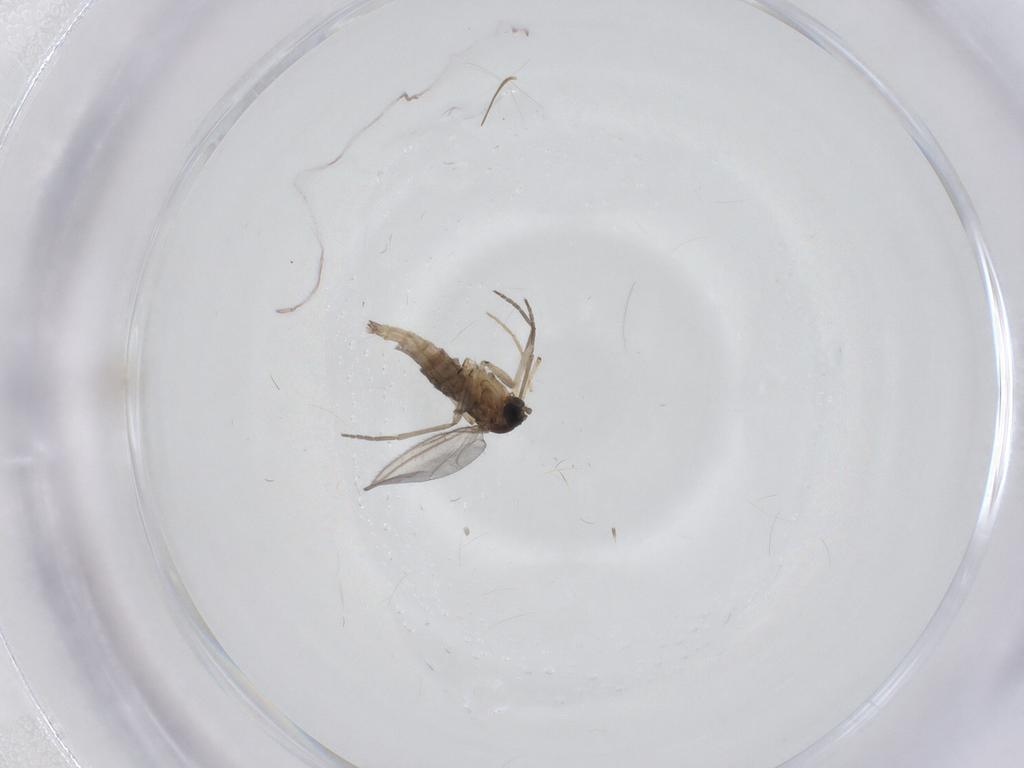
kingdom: Animalia
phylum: Arthropoda
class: Insecta
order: Diptera
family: Chironomidae
